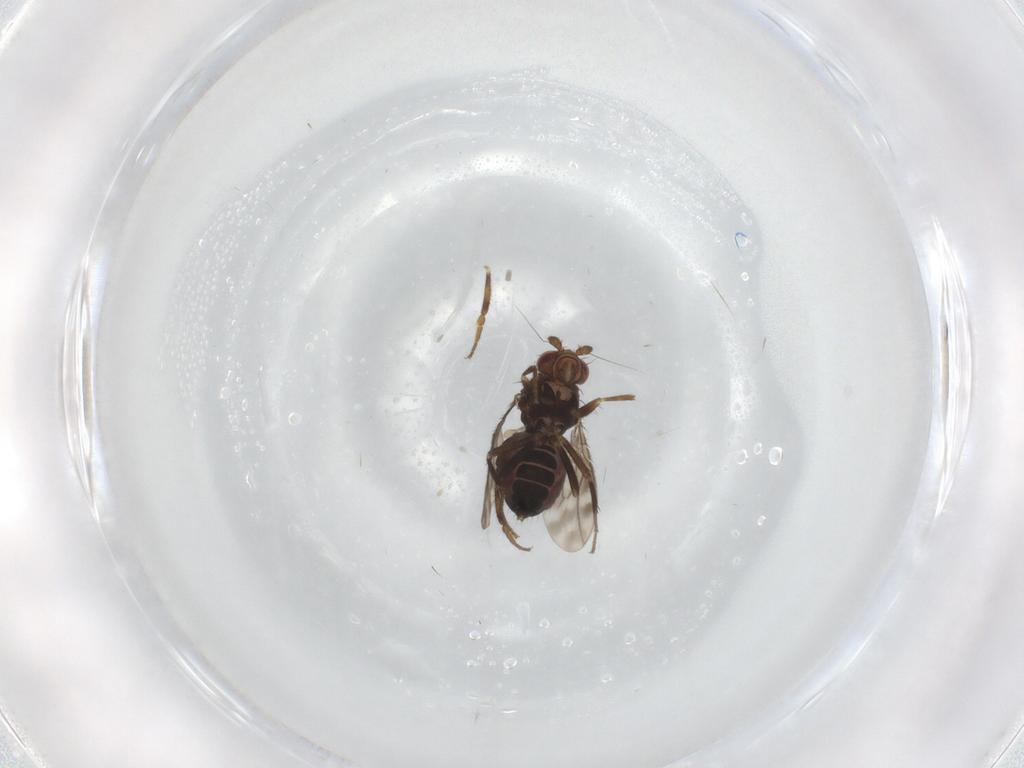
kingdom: Animalia
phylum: Arthropoda
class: Insecta
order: Diptera
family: Sphaeroceridae
